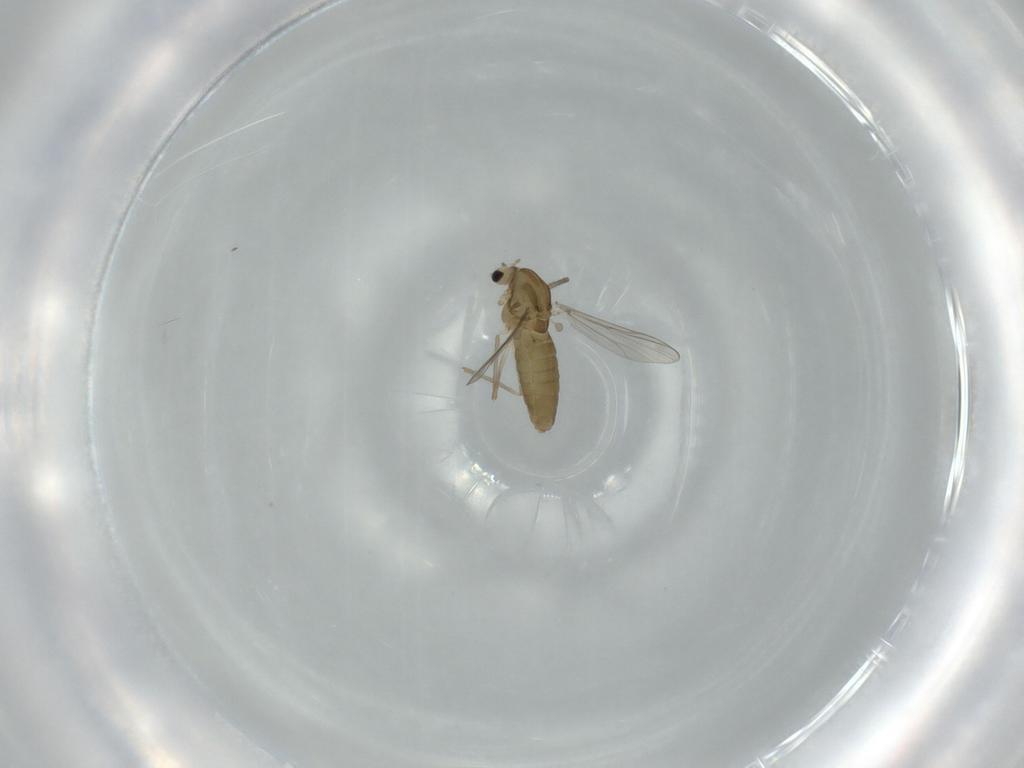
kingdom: Animalia
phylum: Arthropoda
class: Insecta
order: Diptera
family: Chironomidae
